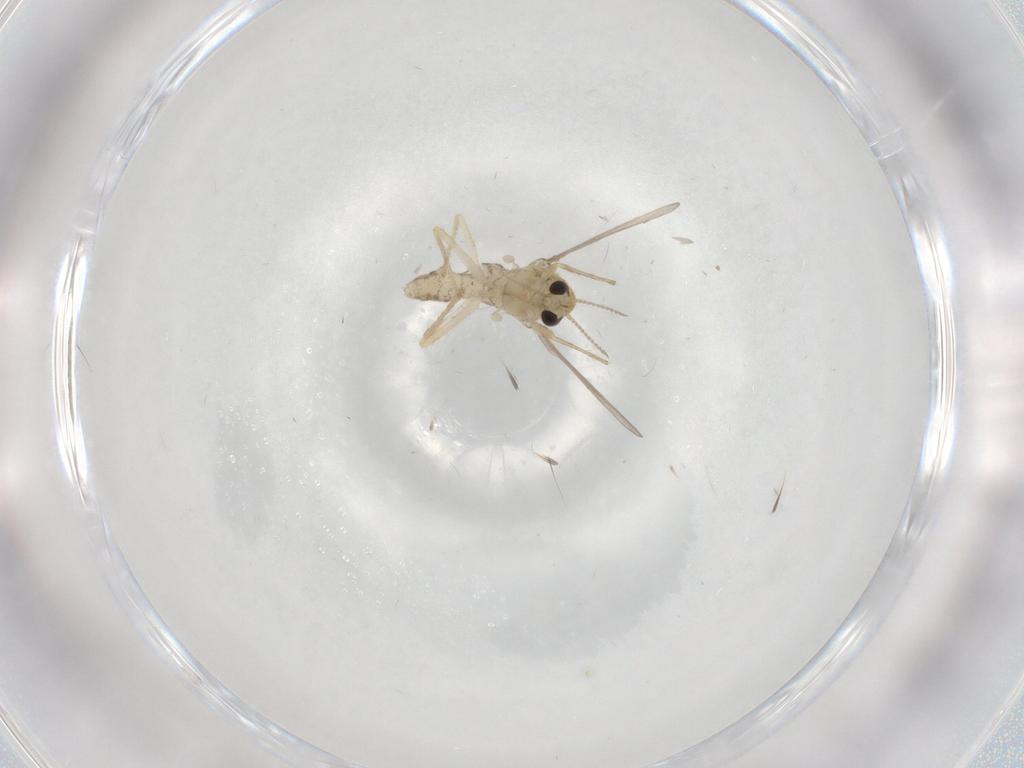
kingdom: Animalia
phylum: Arthropoda
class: Insecta
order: Diptera
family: Chironomidae
